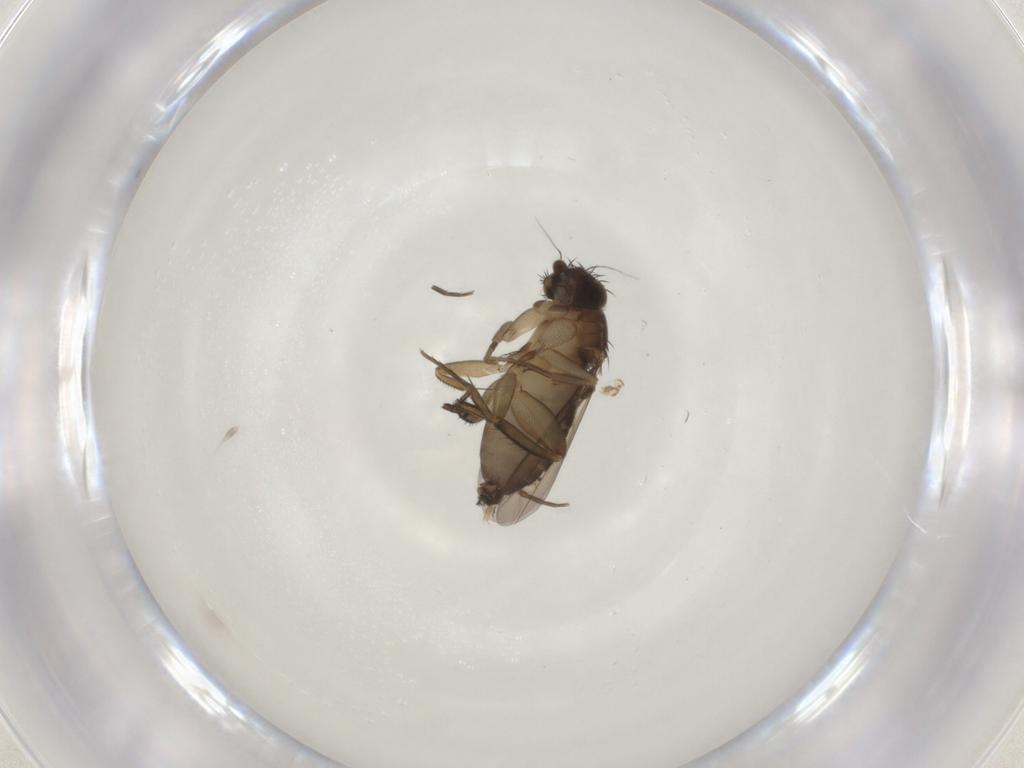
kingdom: Animalia
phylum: Arthropoda
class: Insecta
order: Diptera
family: Phoridae
